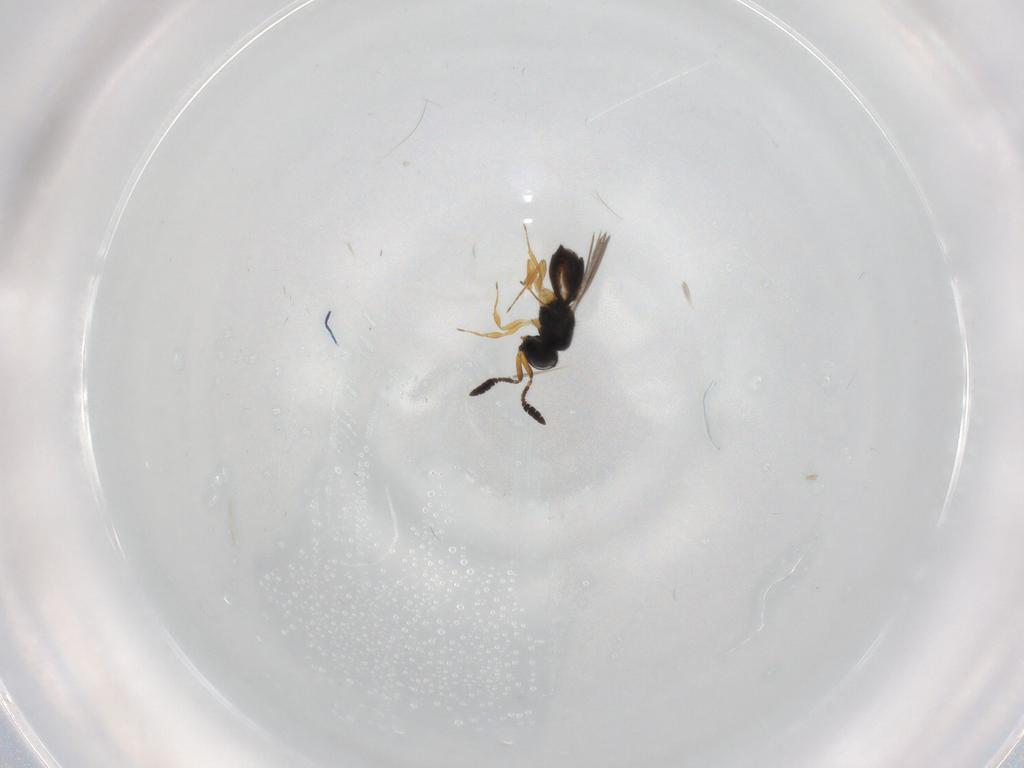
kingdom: Animalia
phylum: Arthropoda
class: Insecta
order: Hymenoptera
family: Scelionidae
